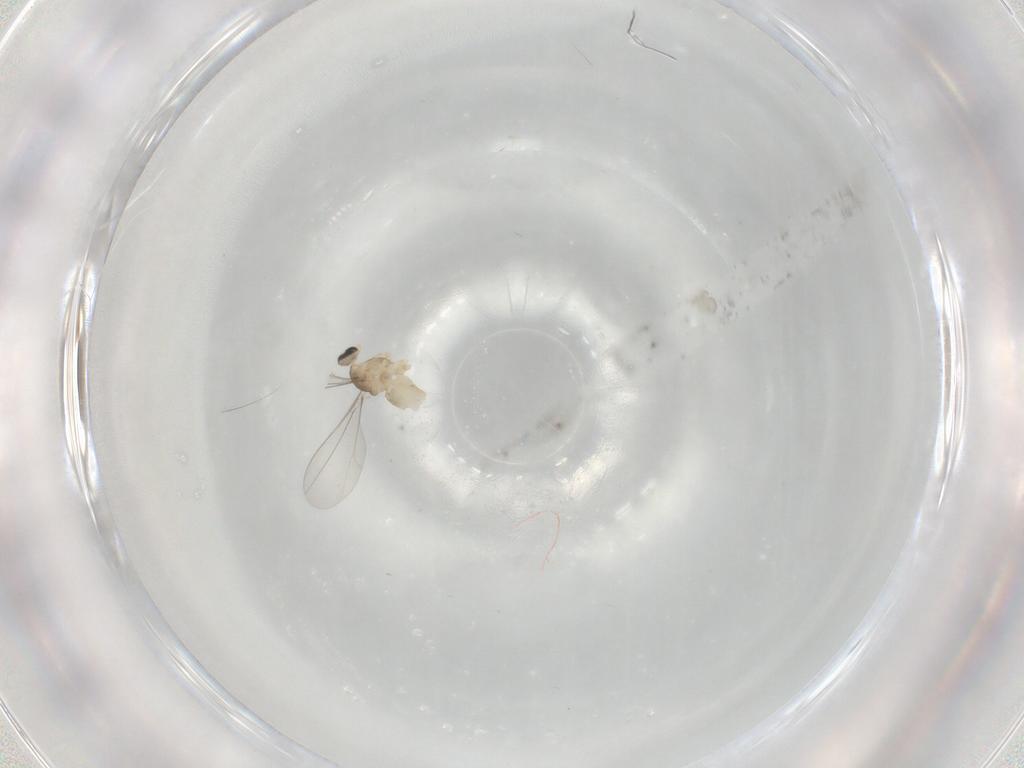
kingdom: Animalia
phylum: Arthropoda
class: Insecta
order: Diptera
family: Cecidomyiidae
